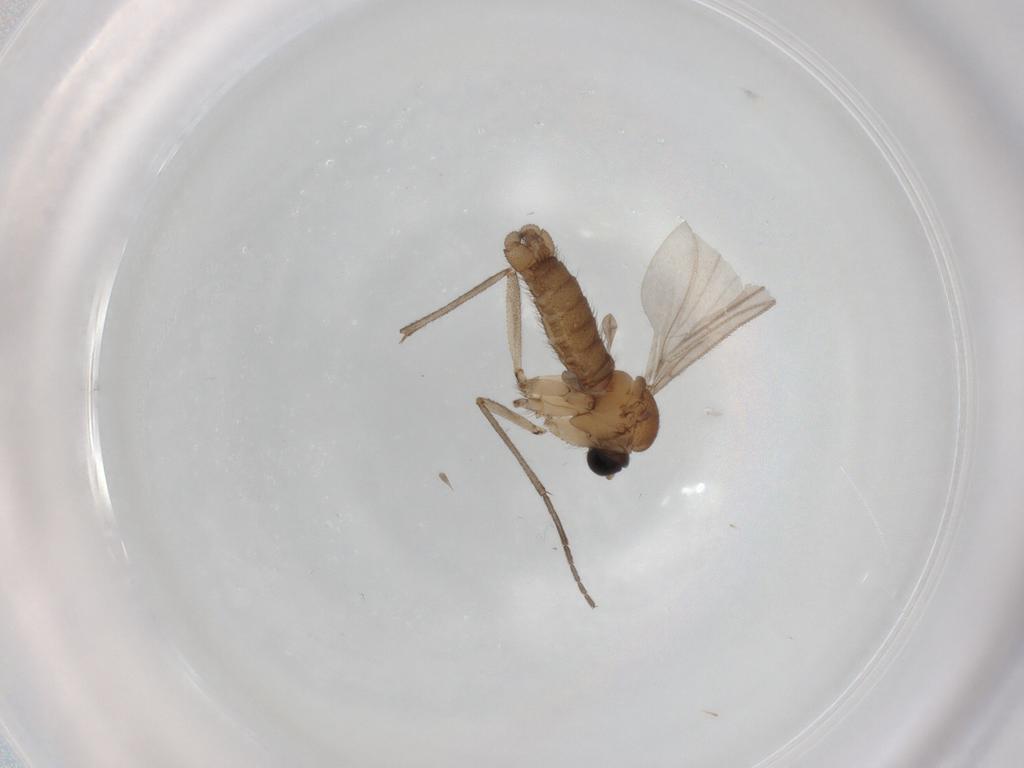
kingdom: Animalia
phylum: Arthropoda
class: Insecta
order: Diptera
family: Sciaridae
